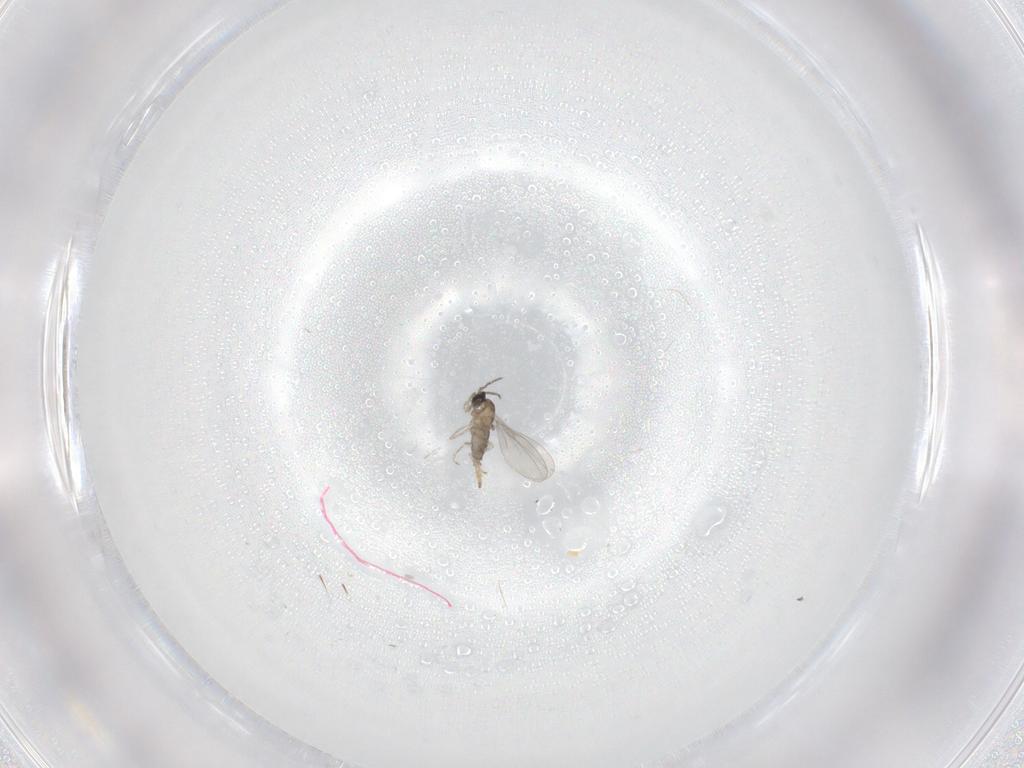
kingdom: Animalia
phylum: Arthropoda
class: Insecta
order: Diptera
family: Cecidomyiidae
